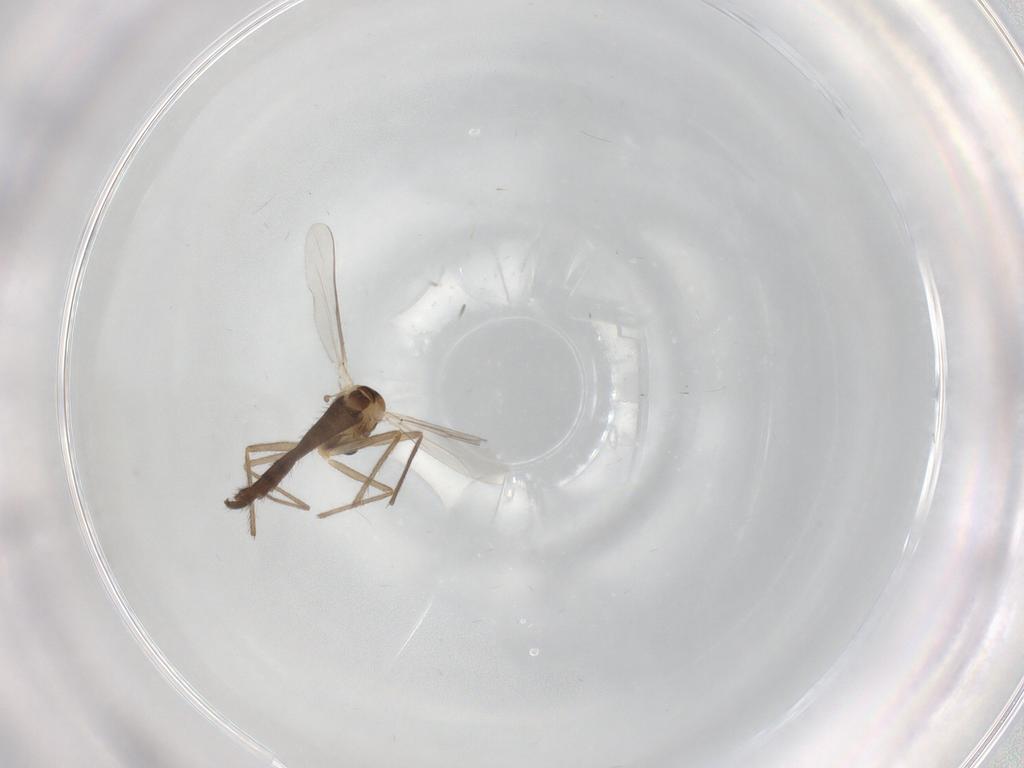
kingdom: Animalia
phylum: Arthropoda
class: Insecta
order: Diptera
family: Chironomidae
